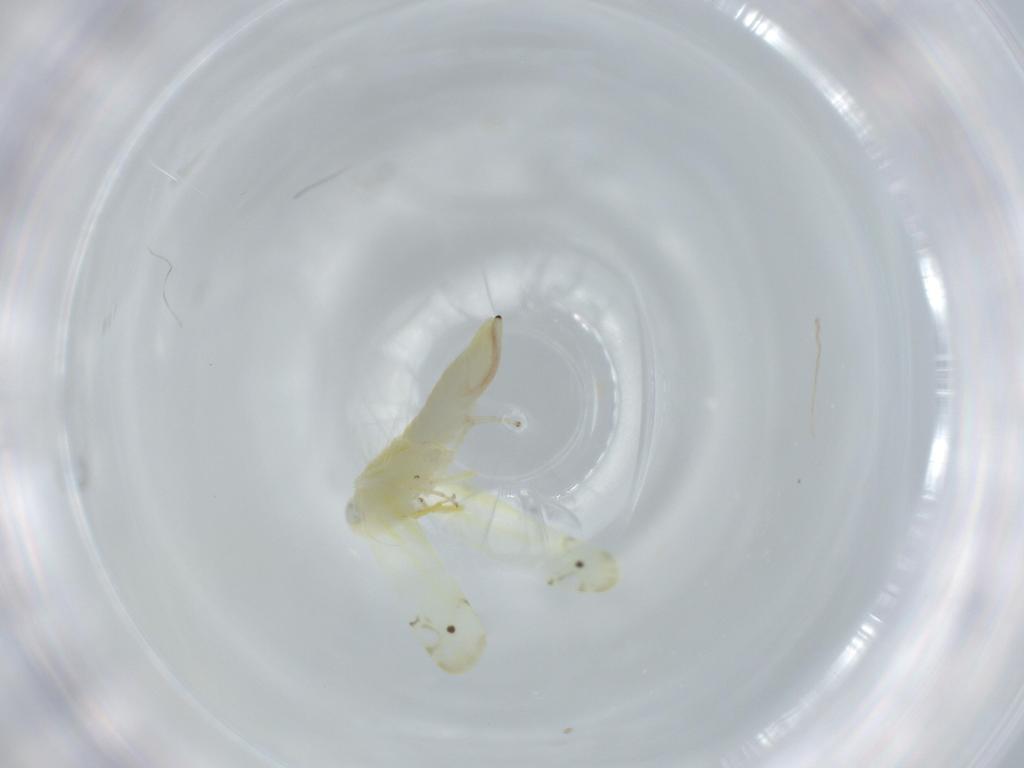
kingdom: Animalia
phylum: Arthropoda
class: Insecta
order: Hemiptera
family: Cicadellidae
